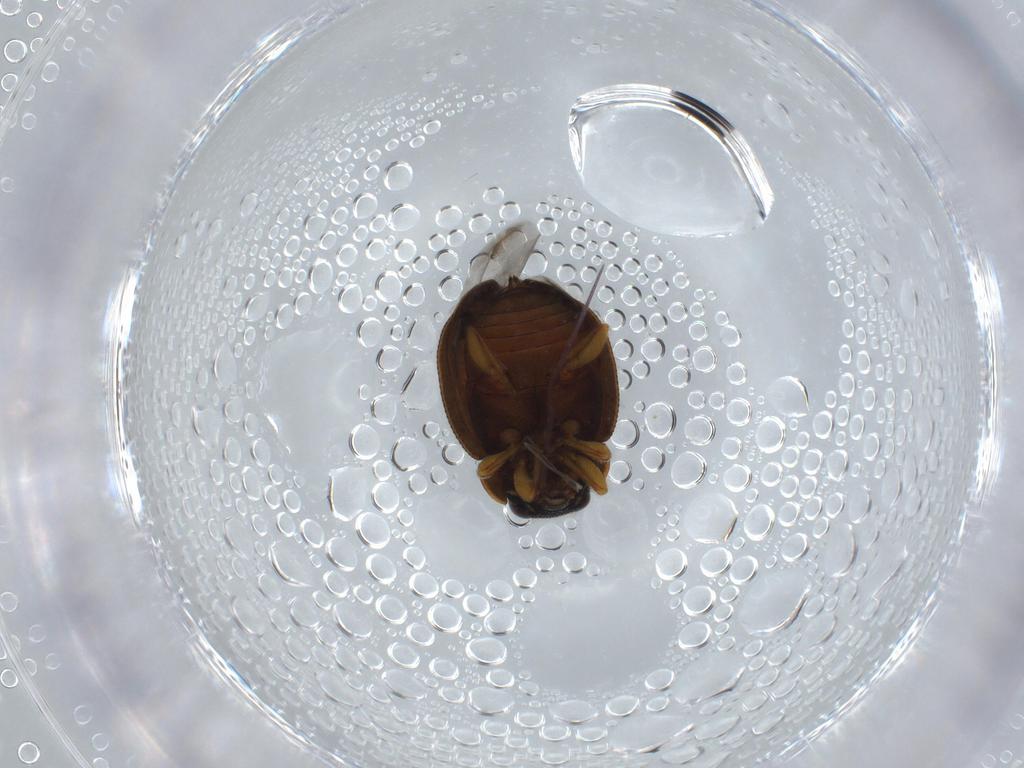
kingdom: Animalia
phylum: Arthropoda
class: Insecta
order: Coleoptera
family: Coccinellidae
